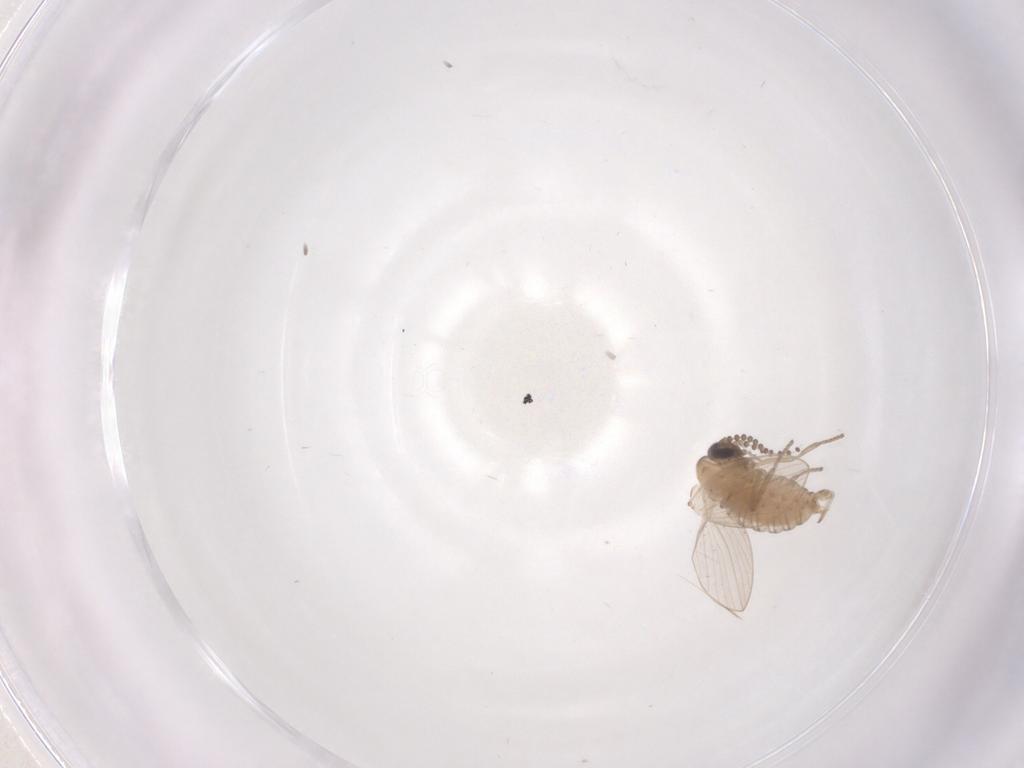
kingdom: Animalia
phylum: Arthropoda
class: Insecta
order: Diptera
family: Psychodidae
